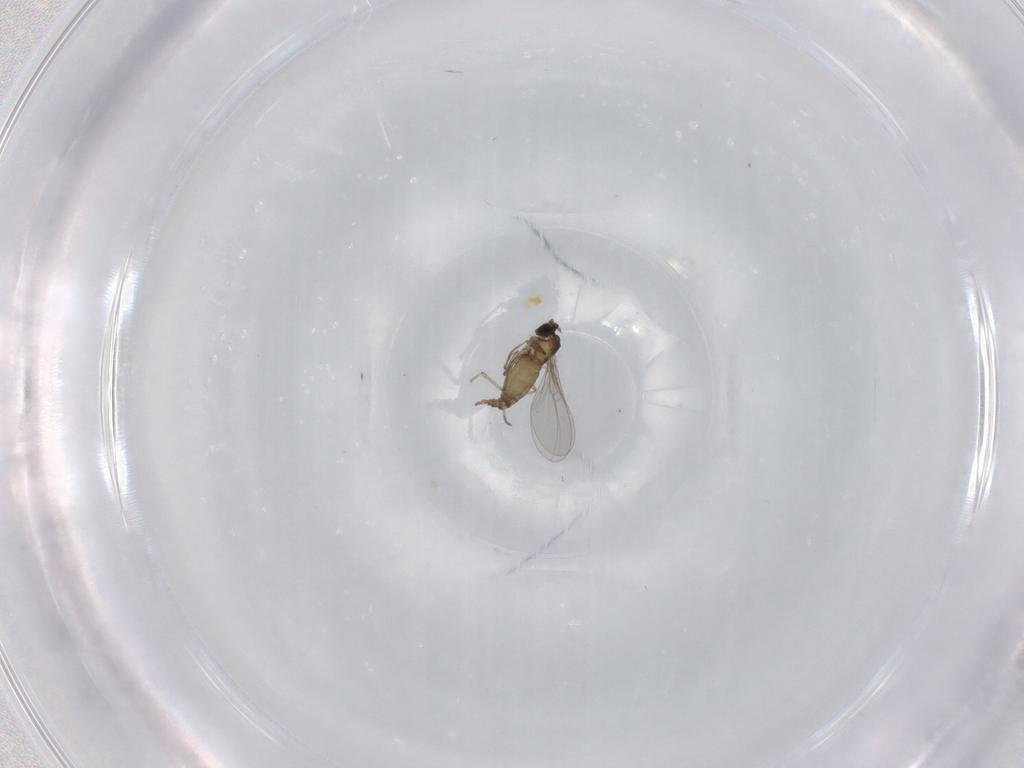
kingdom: Animalia
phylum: Arthropoda
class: Insecta
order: Diptera
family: Cecidomyiidae
